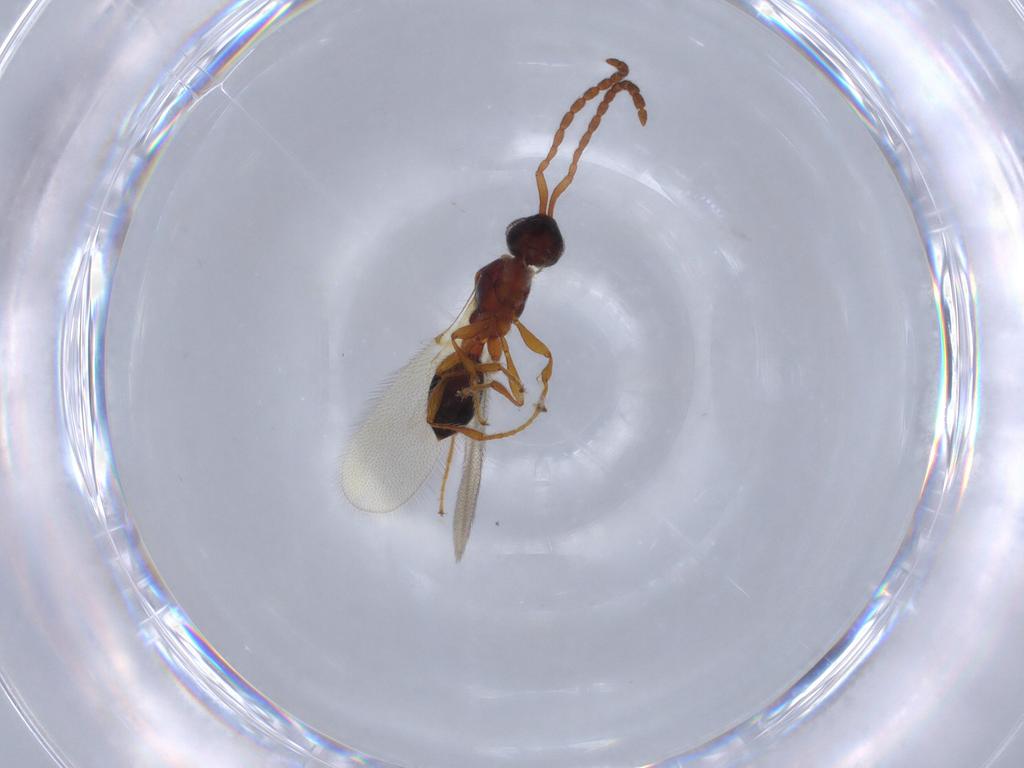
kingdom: Animalia
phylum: Arthropoda
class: Insecta
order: Hymenoptera
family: Diapriidae
